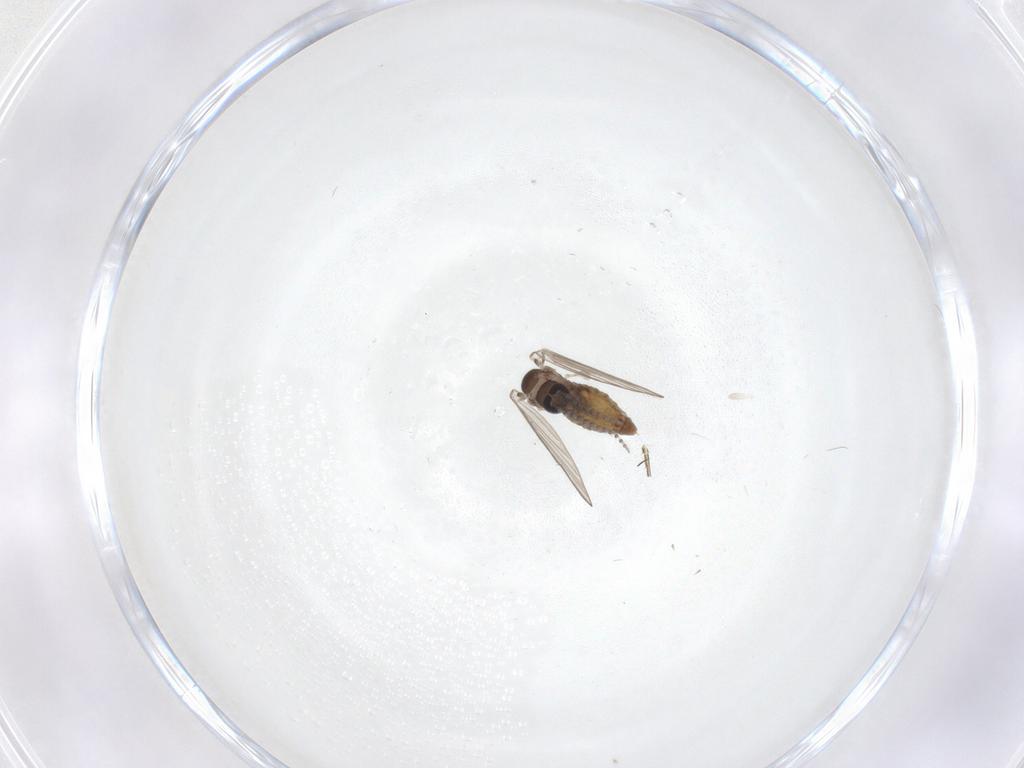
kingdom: Animalia
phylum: Arthropoda
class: Insecta
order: Diptera
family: Psychodidae
